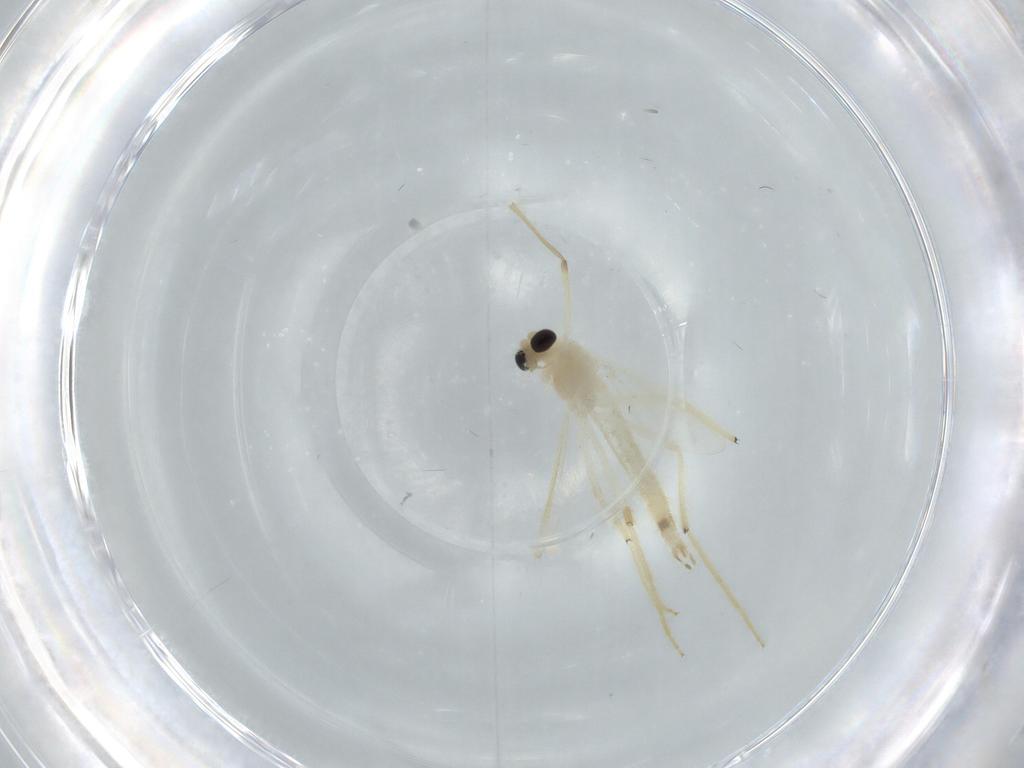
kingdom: Animalia
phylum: Arthropoda
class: Insecta
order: Diptera
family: Chironomidae
